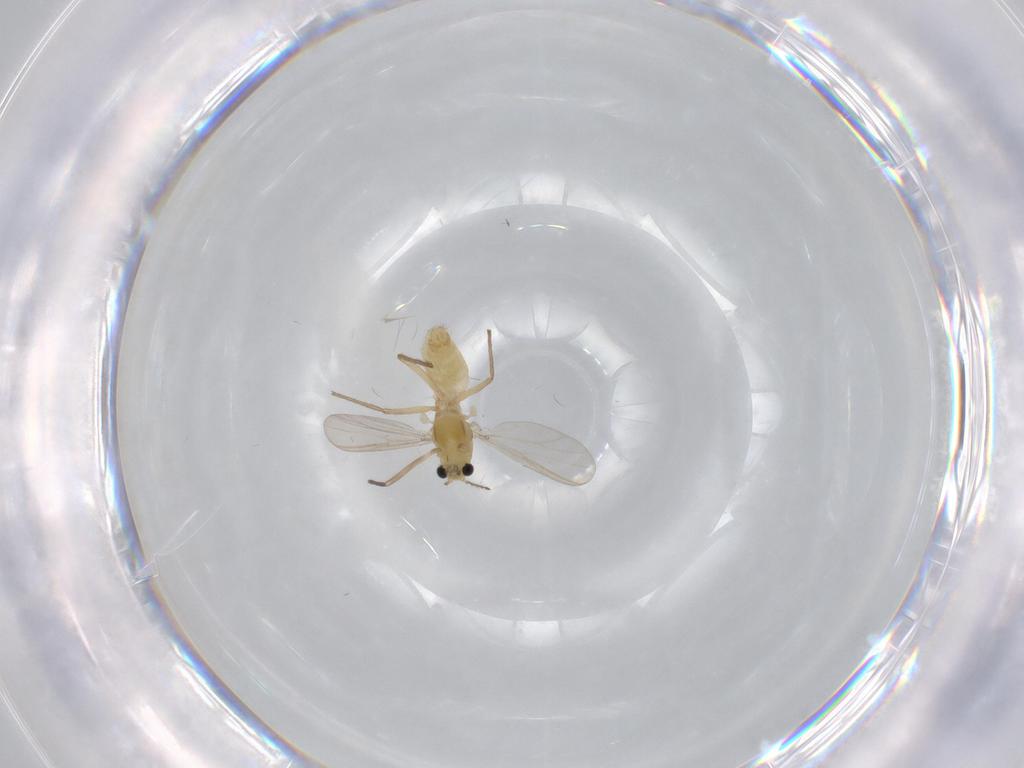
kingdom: Animalia
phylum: Arthropoda
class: Insecta
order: Diptera
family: Chironomidae
